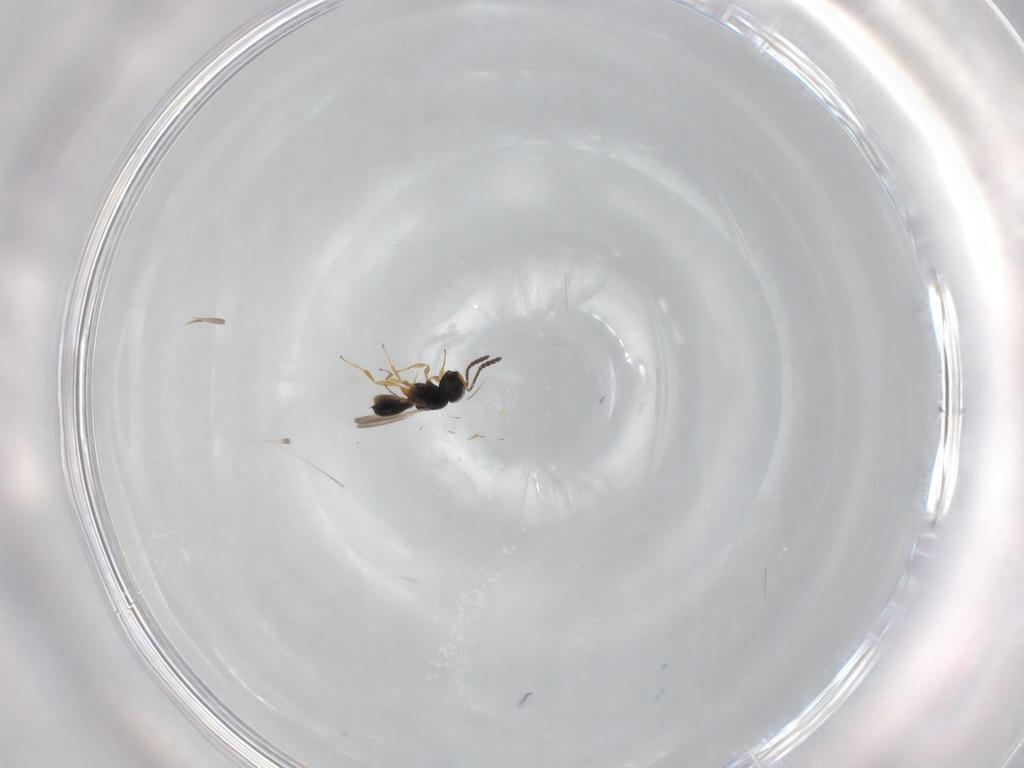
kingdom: Animalia
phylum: Arthropoda
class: Insecta
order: Hymenoptera
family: Scelionidae
